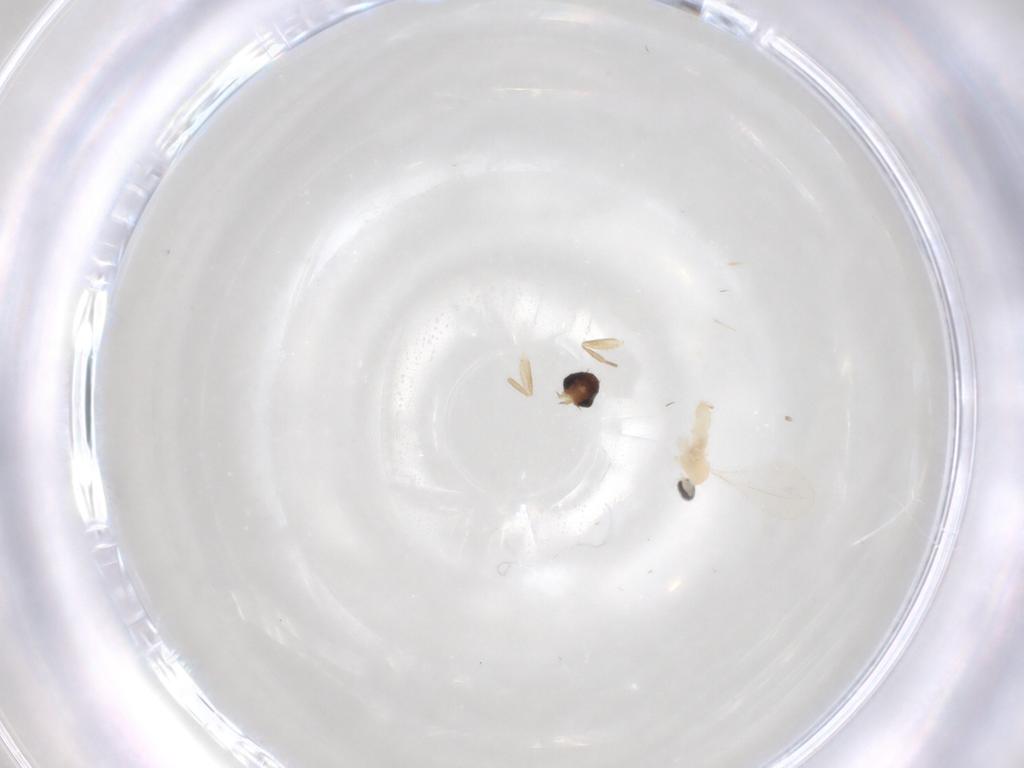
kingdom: Animalia
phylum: Arthropoda
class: Insecta
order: Diptera
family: Phoridae
